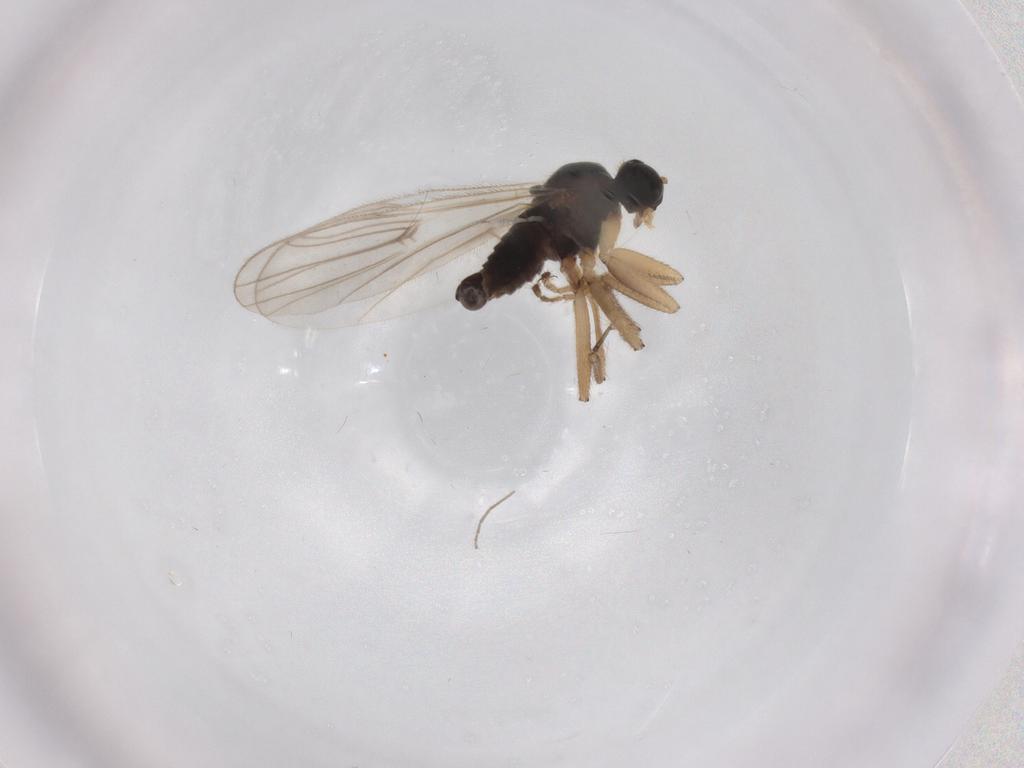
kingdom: Animalia
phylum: Arthropoda
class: Insecta
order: Diptera
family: Hybotidae
